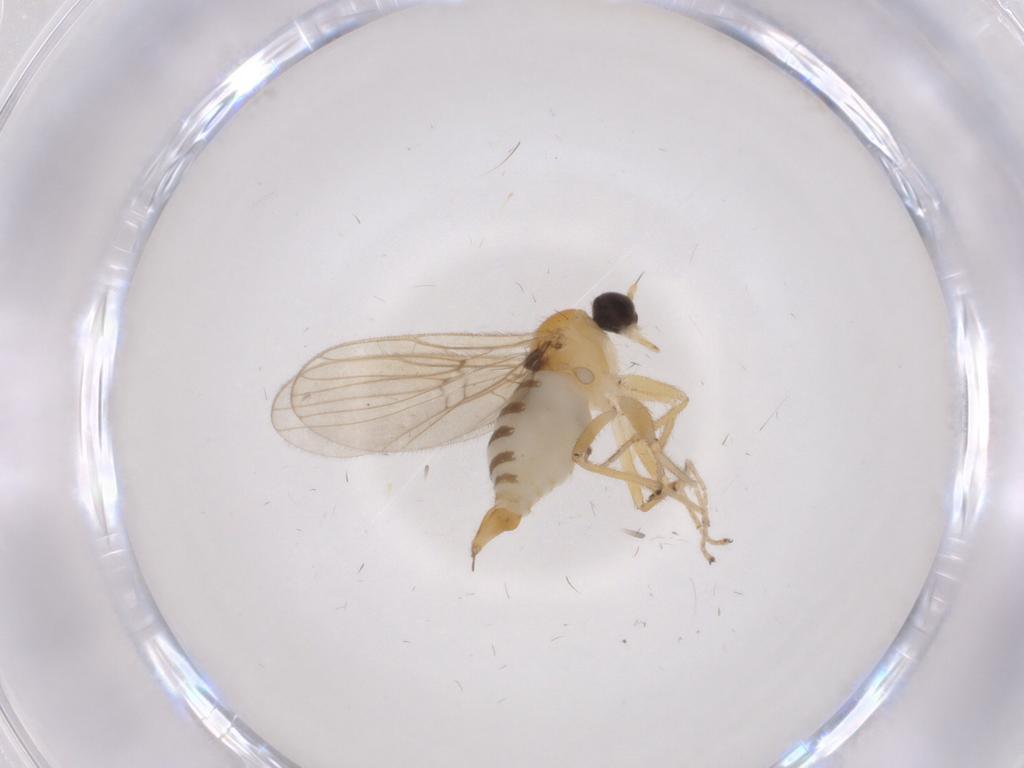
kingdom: Animalia
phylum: Arthropoda
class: Insecta
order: Diptera
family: Hybotidae
